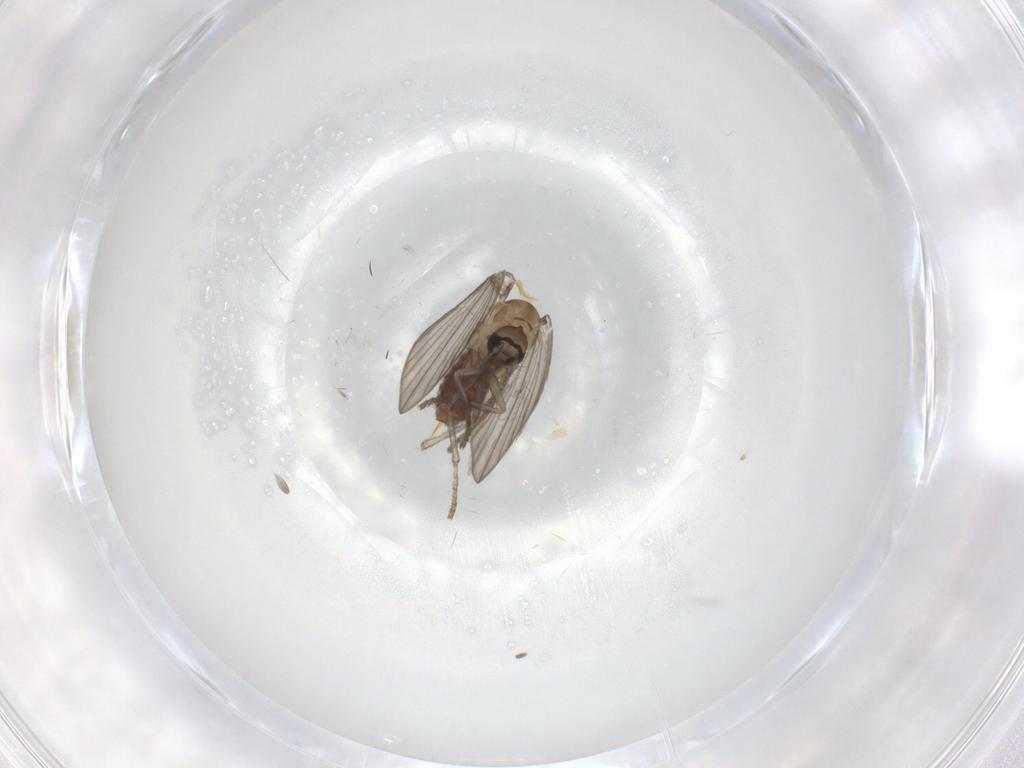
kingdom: Animalia
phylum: Arthropoda
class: Insecta
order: Diptera
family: Psychodidae
